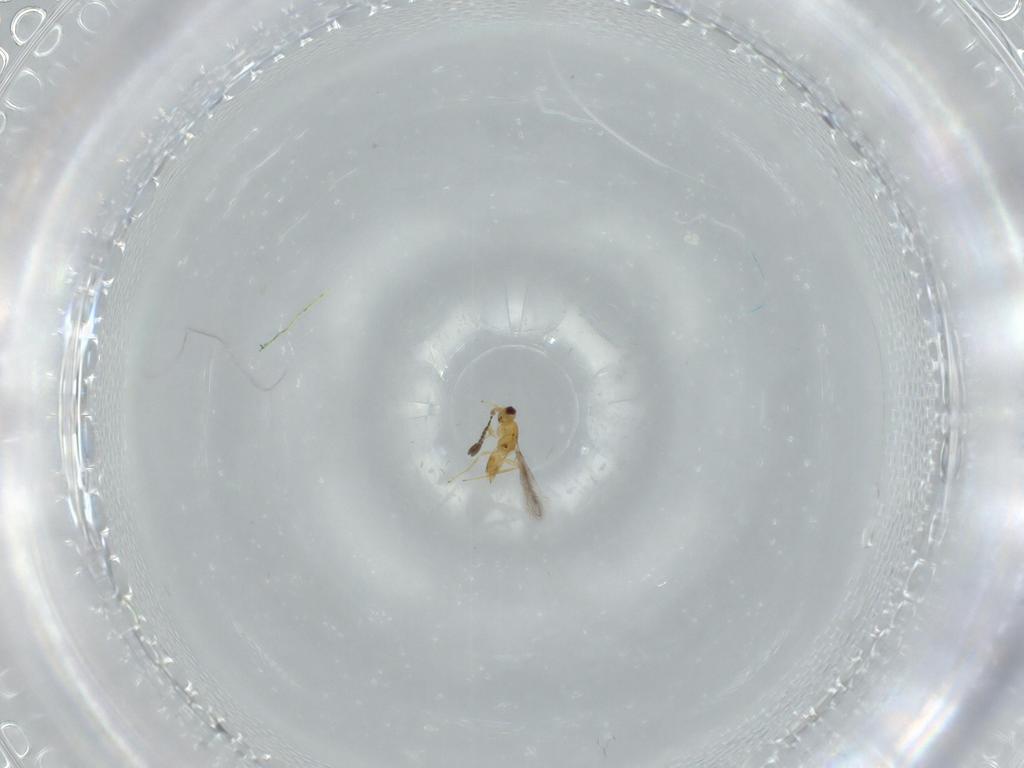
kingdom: Animalia
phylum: Arthropoda
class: Insecta
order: Hymenoptera
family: Mymaridae
